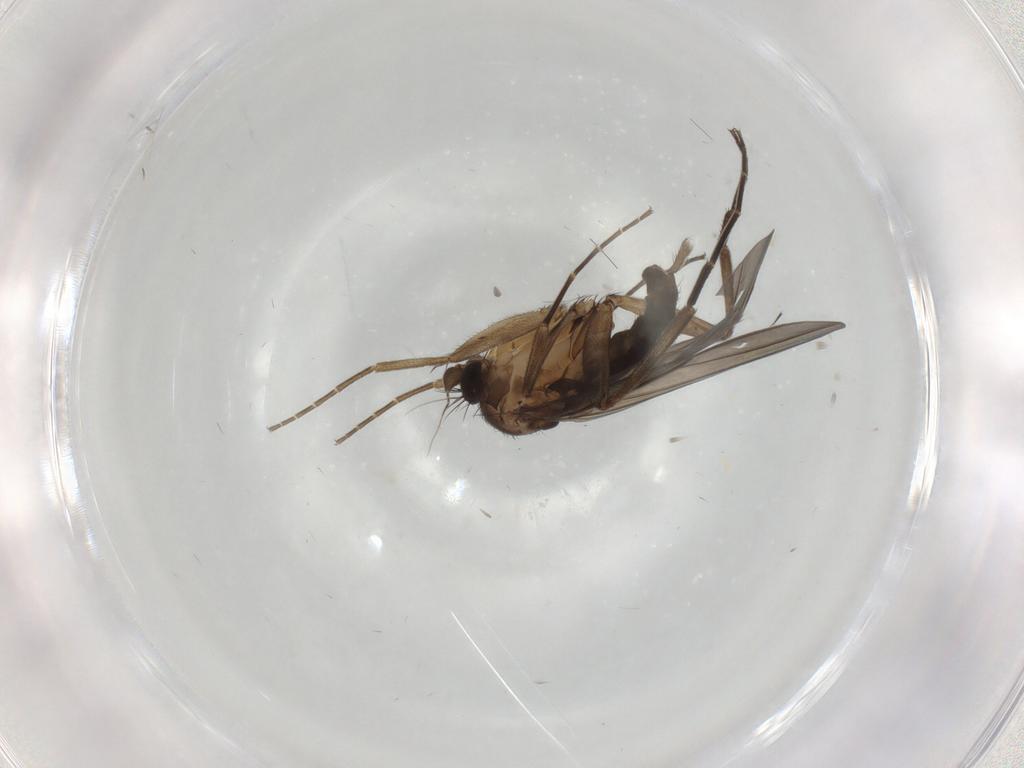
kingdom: Animalia
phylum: Arthropoda
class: Insecta
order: Diptera
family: Phoridae
